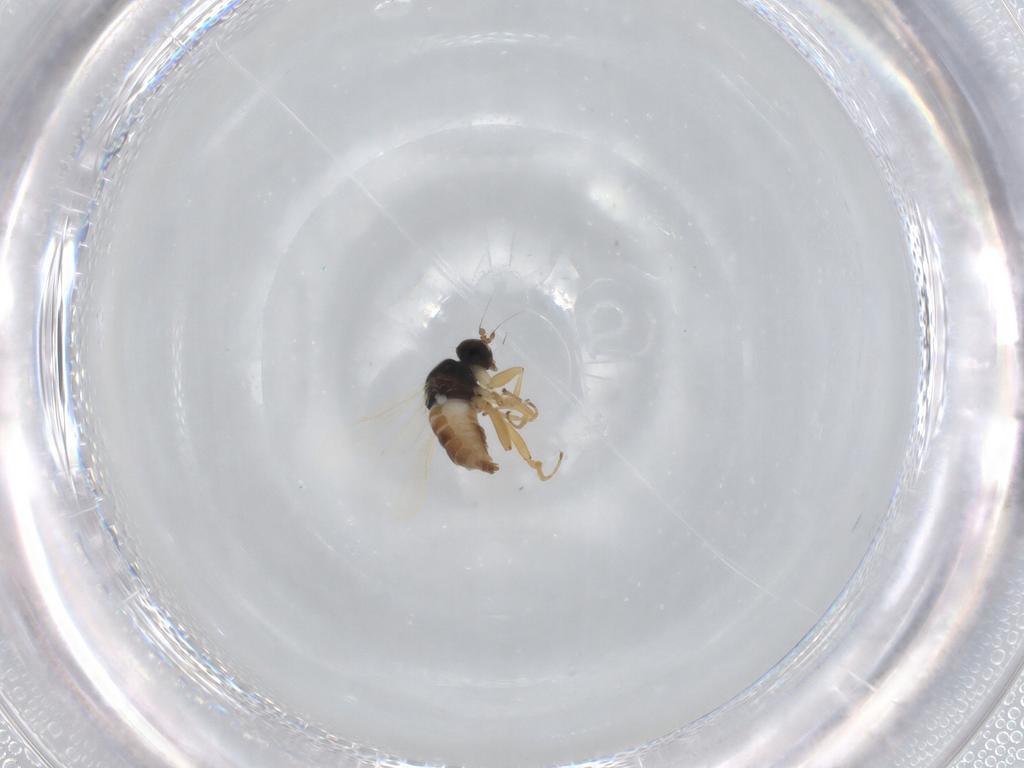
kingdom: Animalia
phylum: Arthropoda
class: Insecta
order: Diptera
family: Hybotidae
